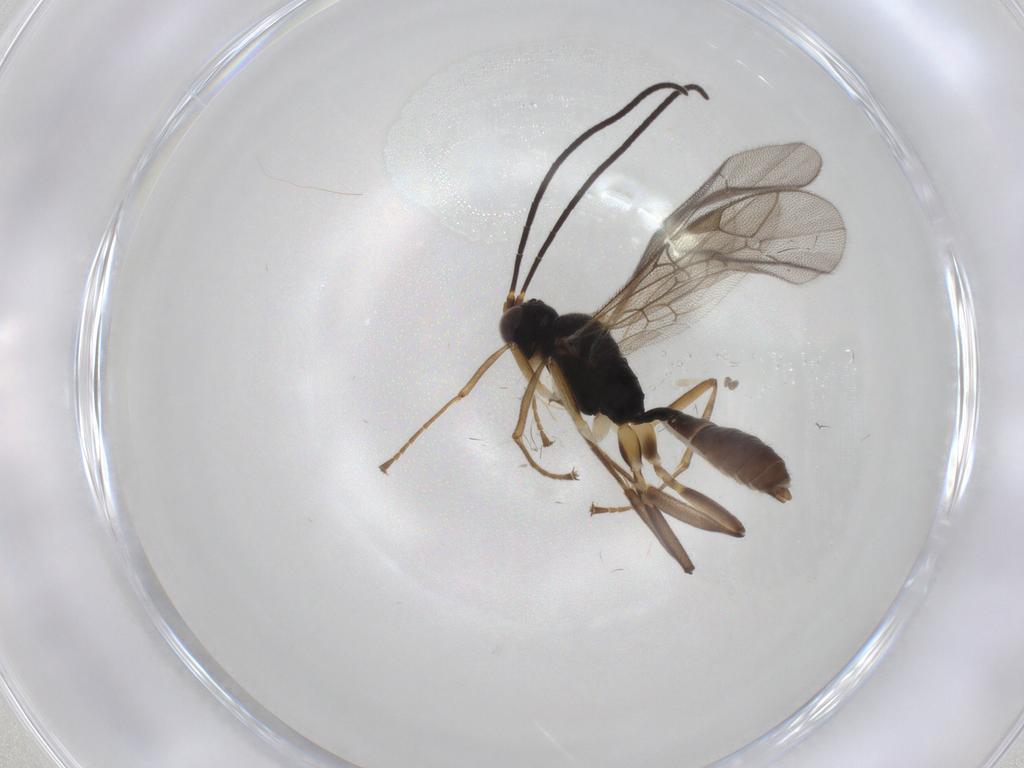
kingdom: Animalia
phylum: Arthropoda
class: Insecta
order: Hymenoptera
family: Ichneumonidae
